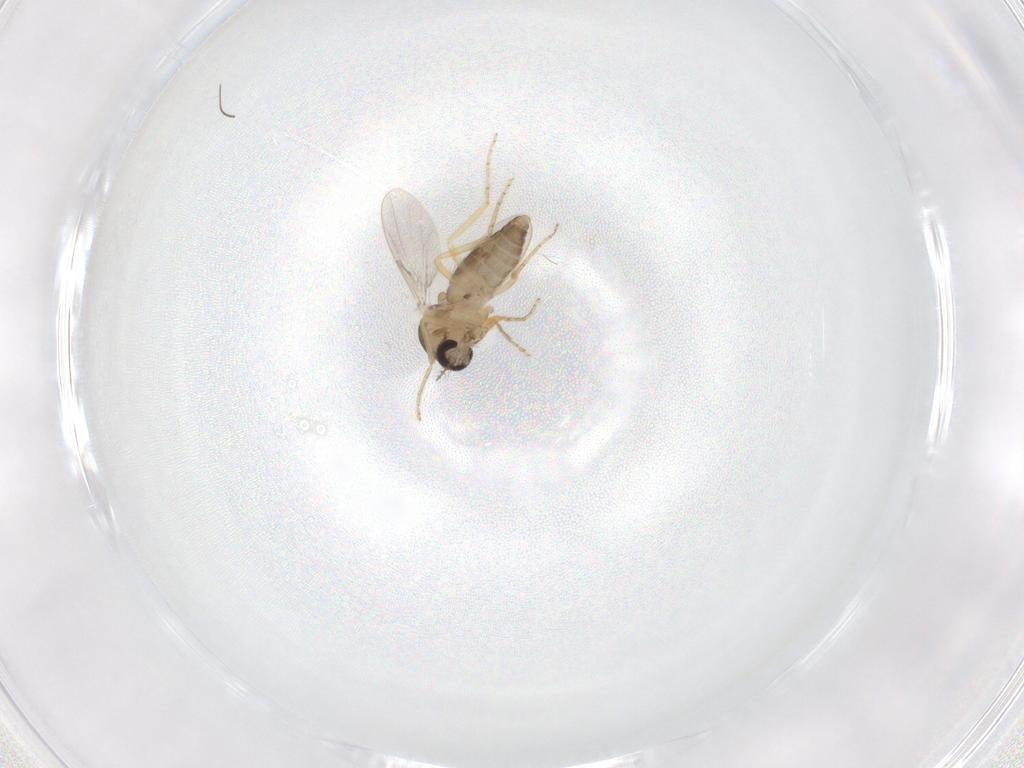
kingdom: Animalia
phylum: Arthropoda
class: Insecta
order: Diptera
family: Ceratopogonidae
